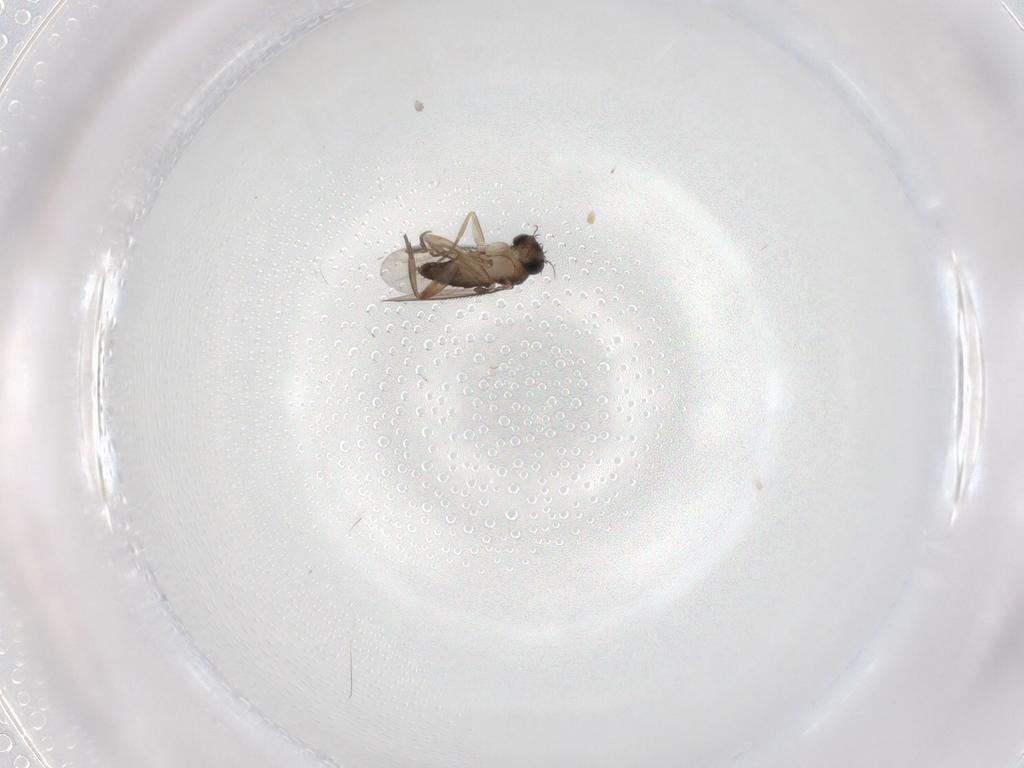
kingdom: Animalia
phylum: Arthropoda
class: Insecta
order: Diptera
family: Phoridae
